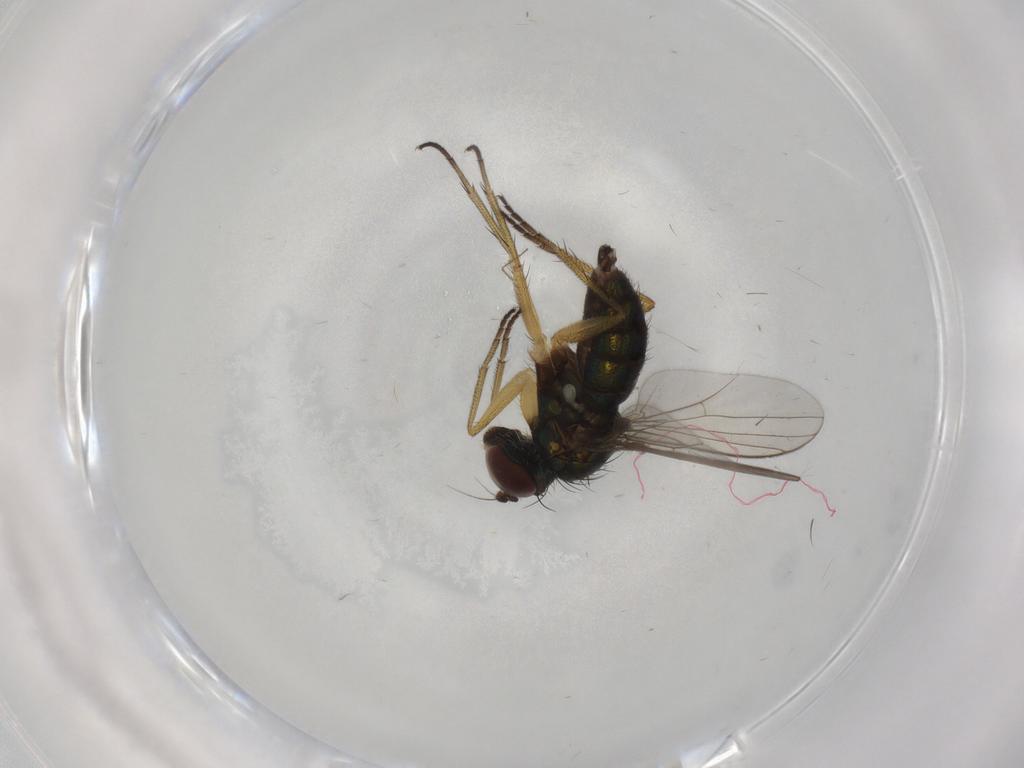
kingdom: Animalia
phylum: Arthropoda
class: Insecta
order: Diptera
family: Dolichopodidae
